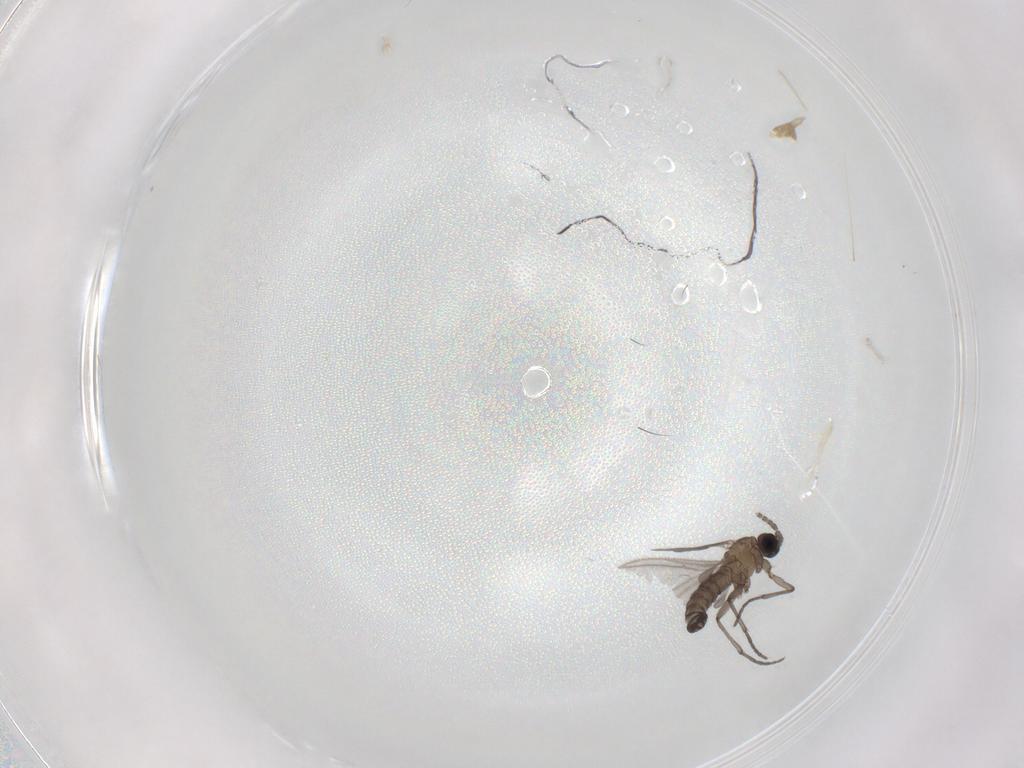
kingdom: Animalia
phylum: Arthropoda
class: Insecta
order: Diptera
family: Sciaridae
